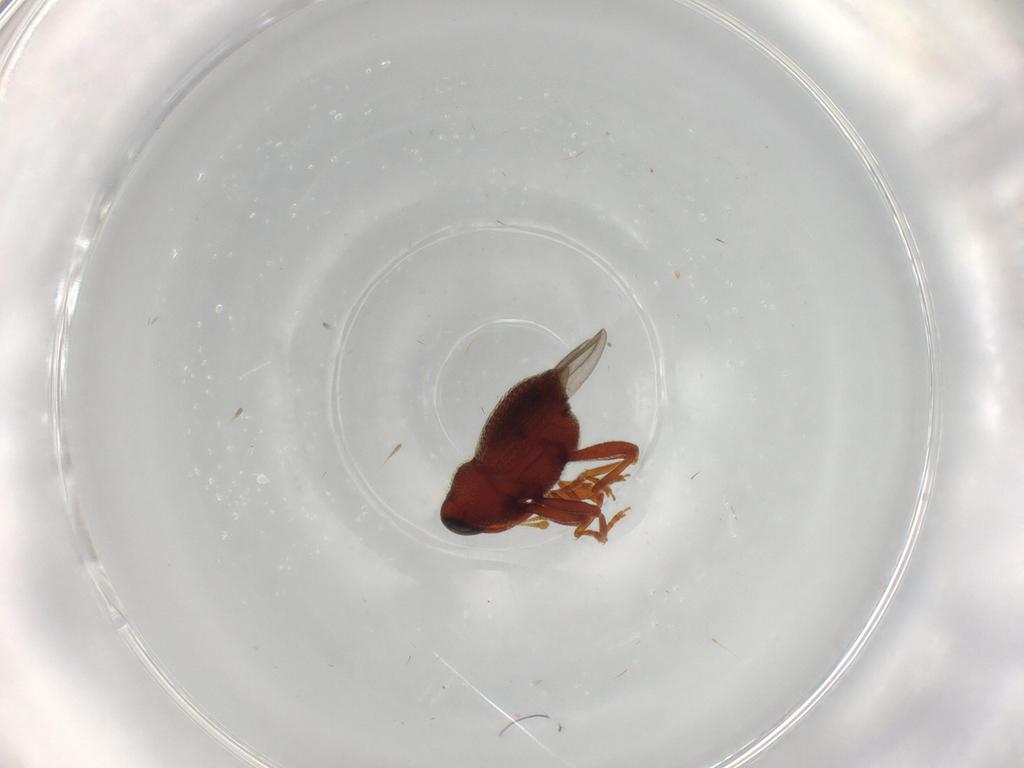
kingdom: Animalia
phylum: Arthropoda
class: Insecta
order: Coleoptera
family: Curculionidae
